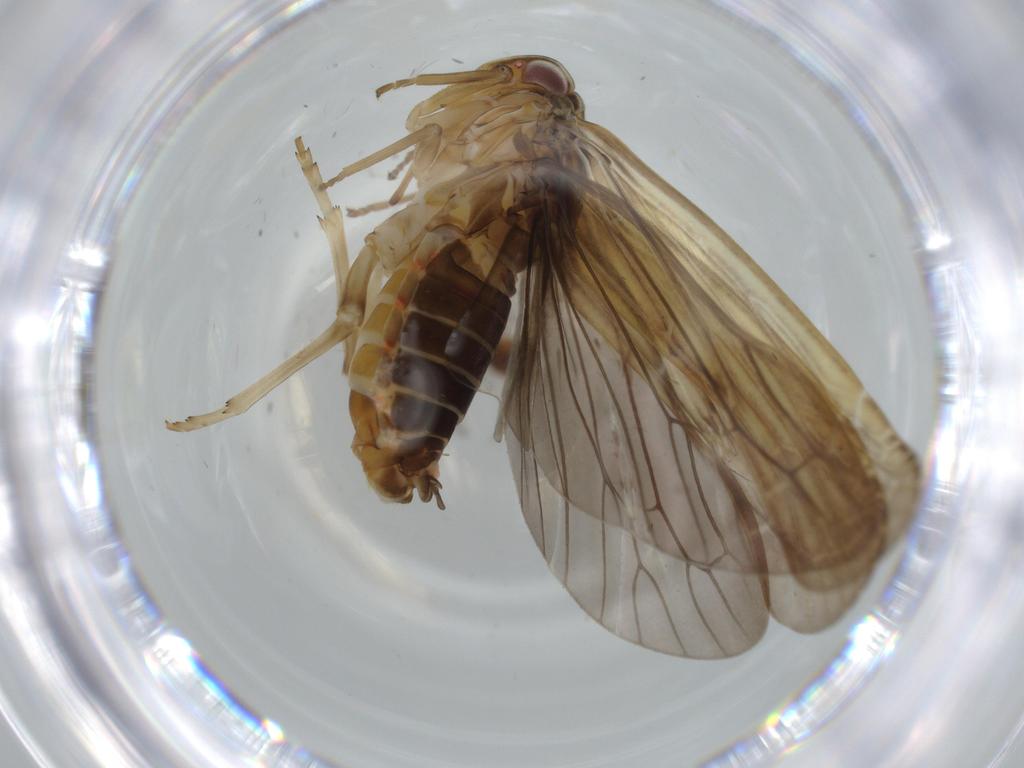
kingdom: Animalia
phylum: Arthropoda
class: Insecta
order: Hemiptera
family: Achilidae
